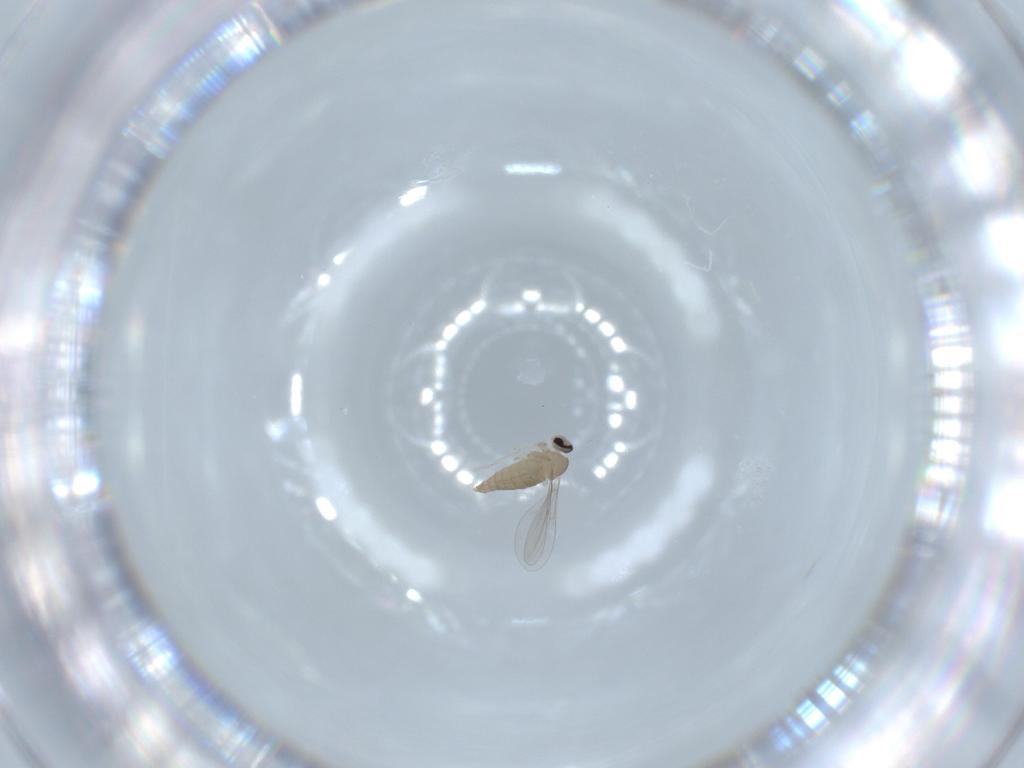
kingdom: Animalia
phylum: Arthropoda
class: Insecta
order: Diptera
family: Cecidomyiidae
